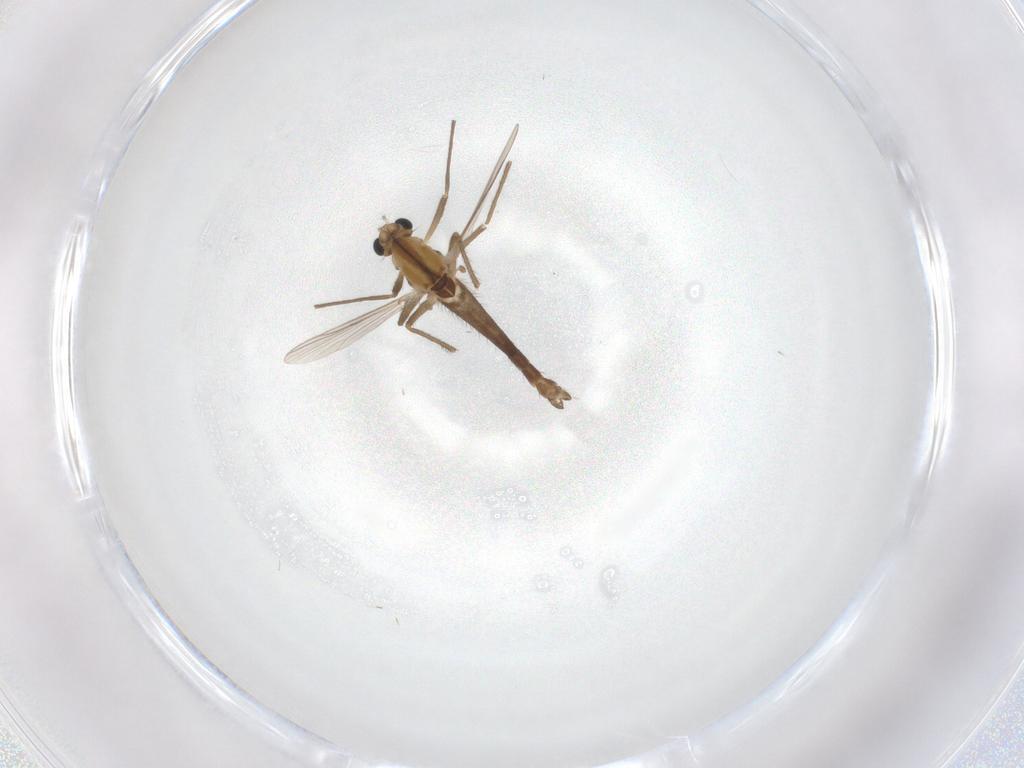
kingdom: Animalia
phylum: Arthropoda
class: Insecta
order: Diptera
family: Chironomidae
